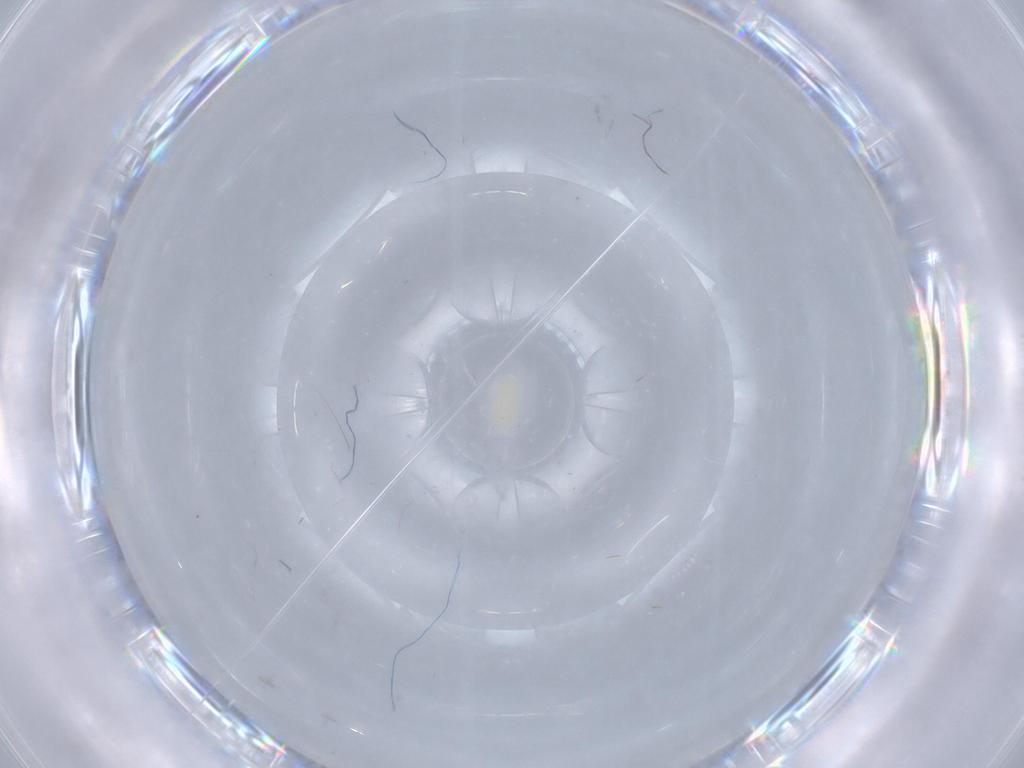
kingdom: Animalia
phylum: Arthropoda
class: Arachnida
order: Trombidiformes
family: Eupodidae
